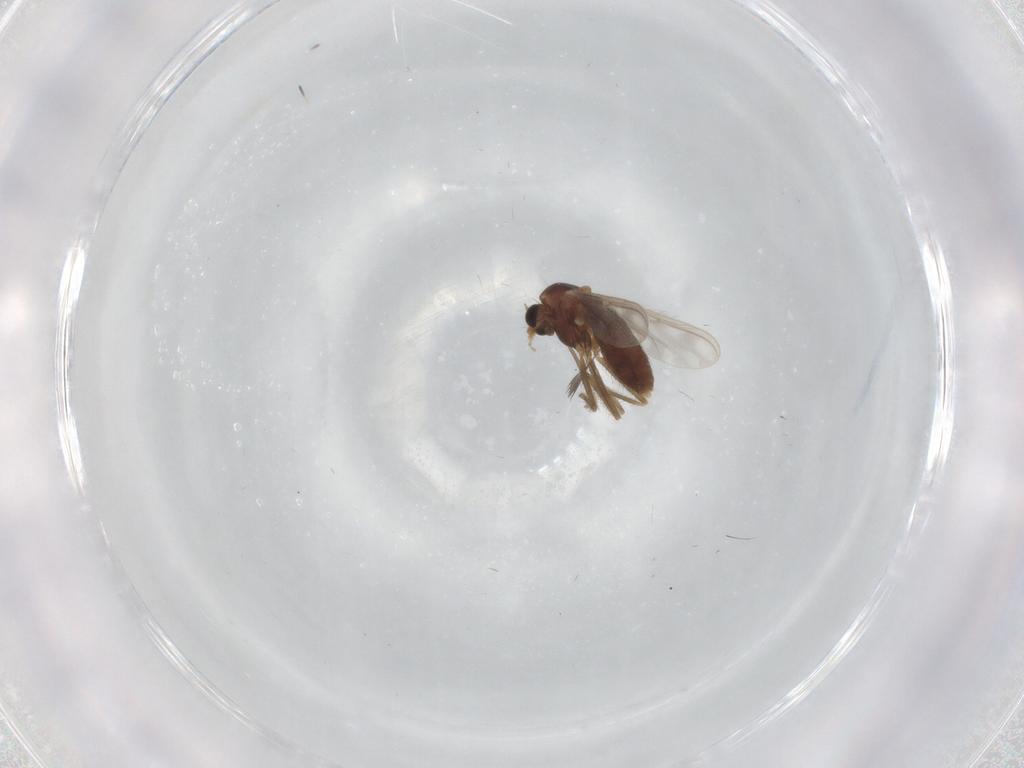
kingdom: Animalia
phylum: Arthropoda
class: Insecta
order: Diptera
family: Chironomidae
